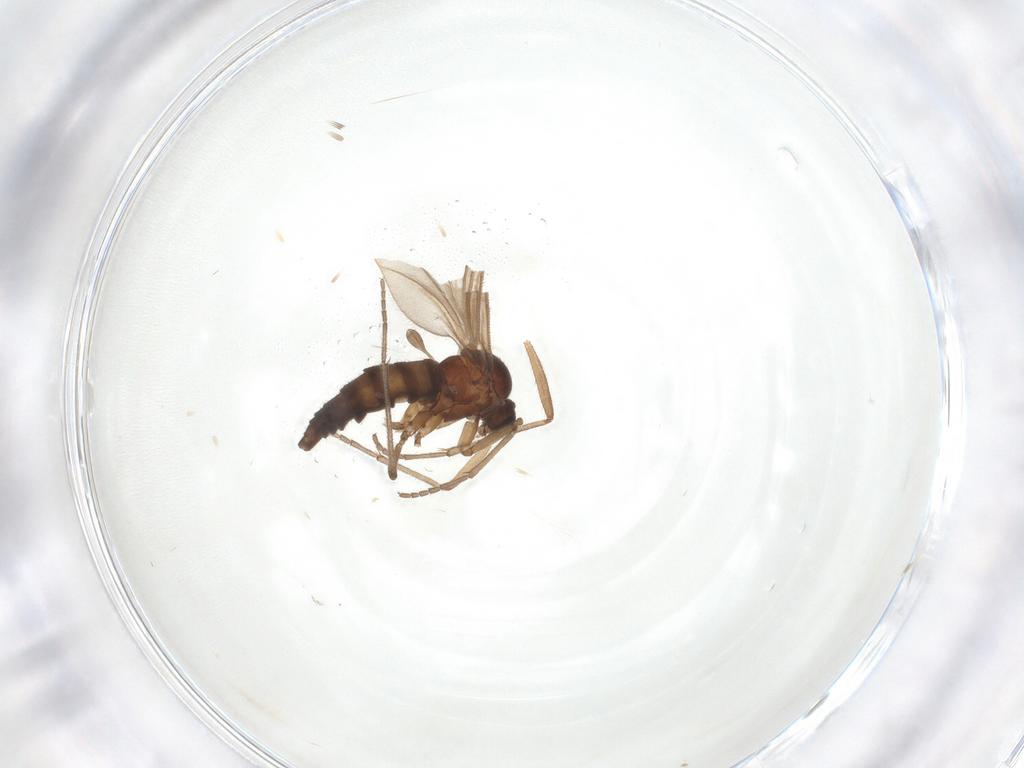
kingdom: Animalia
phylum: Arthropoda
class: Insecta
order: Diptera
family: Sciaridae
